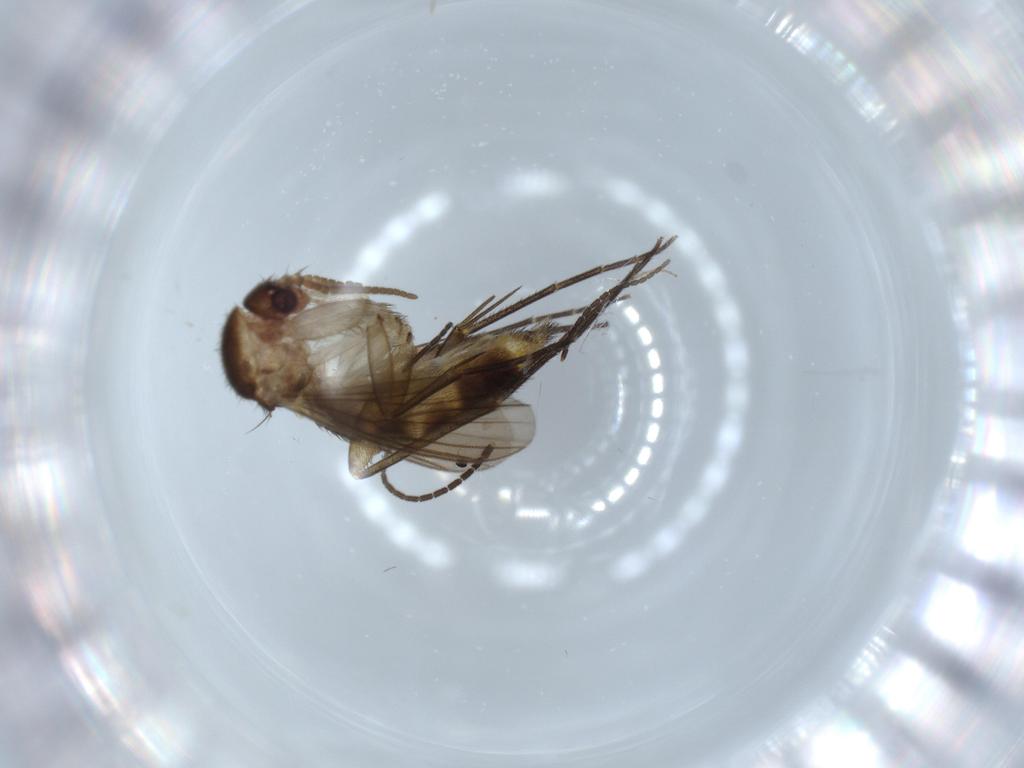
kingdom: Animalia
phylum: Arthropoda
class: Insecta
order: Diptera
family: Sciaridae
